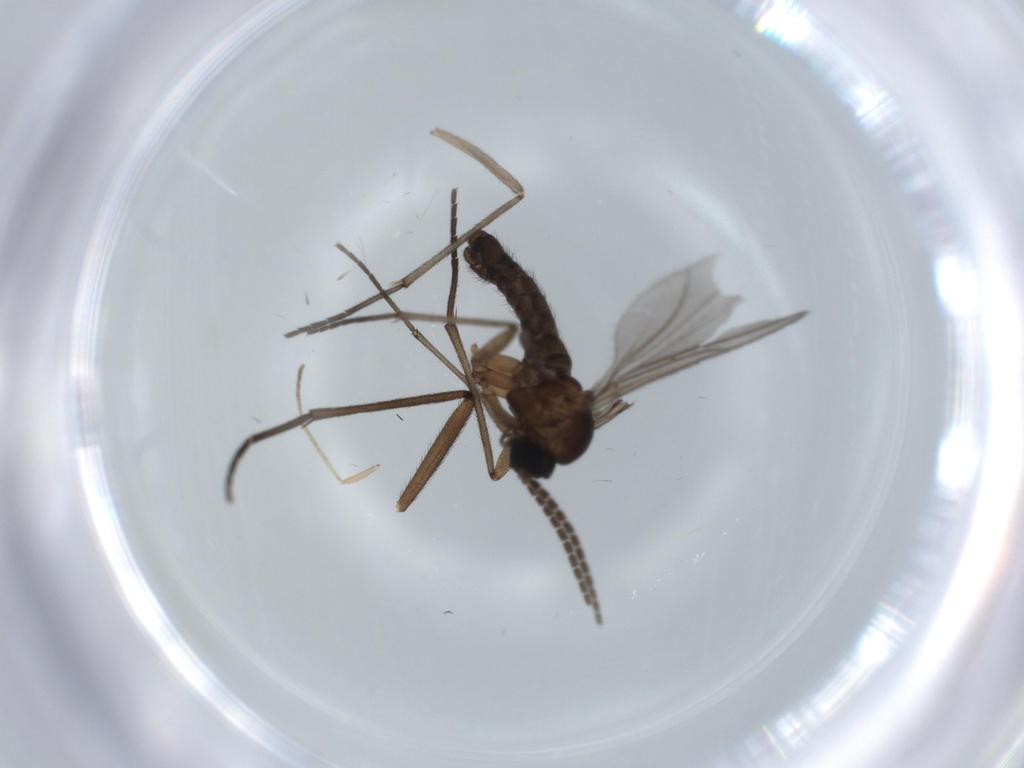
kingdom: Animalia
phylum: Arthropoda
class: Insecta
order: Diptera
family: Sciaridae
